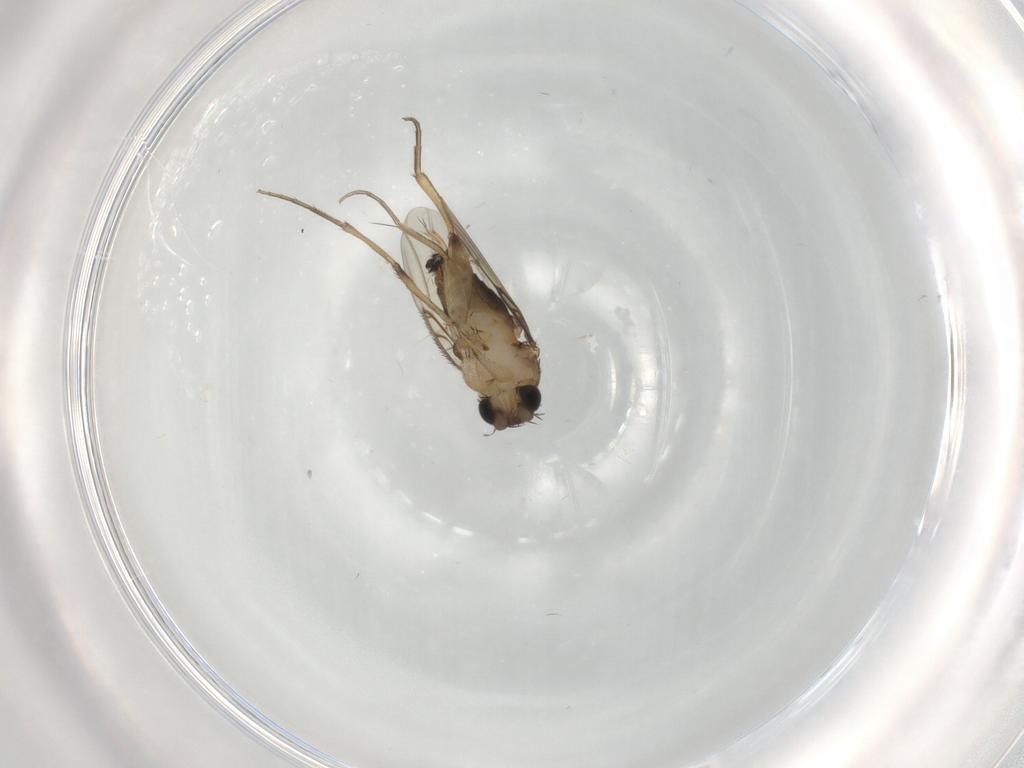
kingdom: Animalia
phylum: Arthropoda
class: Insecta
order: Diptera
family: Phoridae
